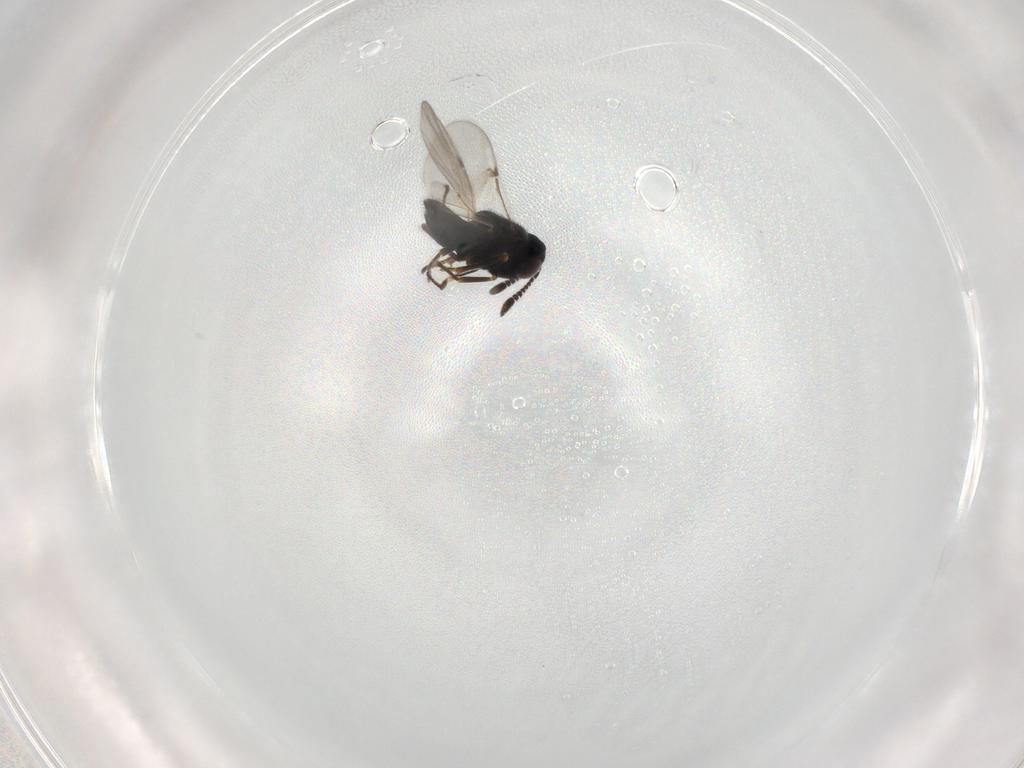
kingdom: Animalia
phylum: Arthropoda
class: Insecta
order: Hymenoptera
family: Encyrtidae
